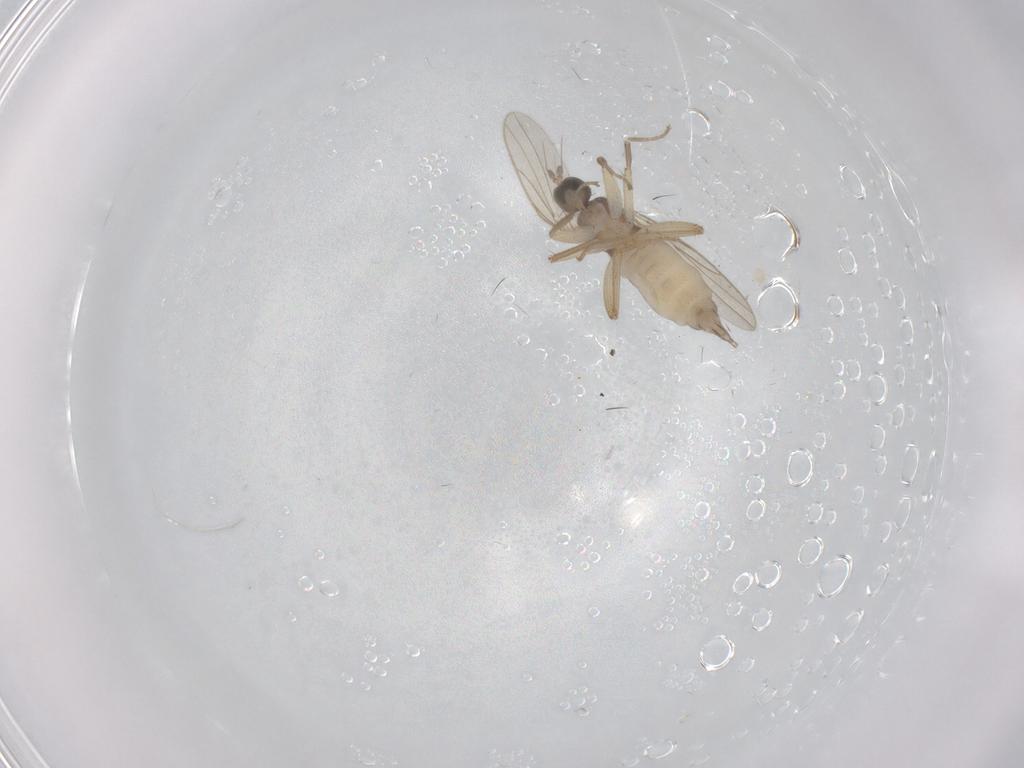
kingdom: Animalia
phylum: Arthropoda
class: Insecta
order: Diptera
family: Hybotidae
